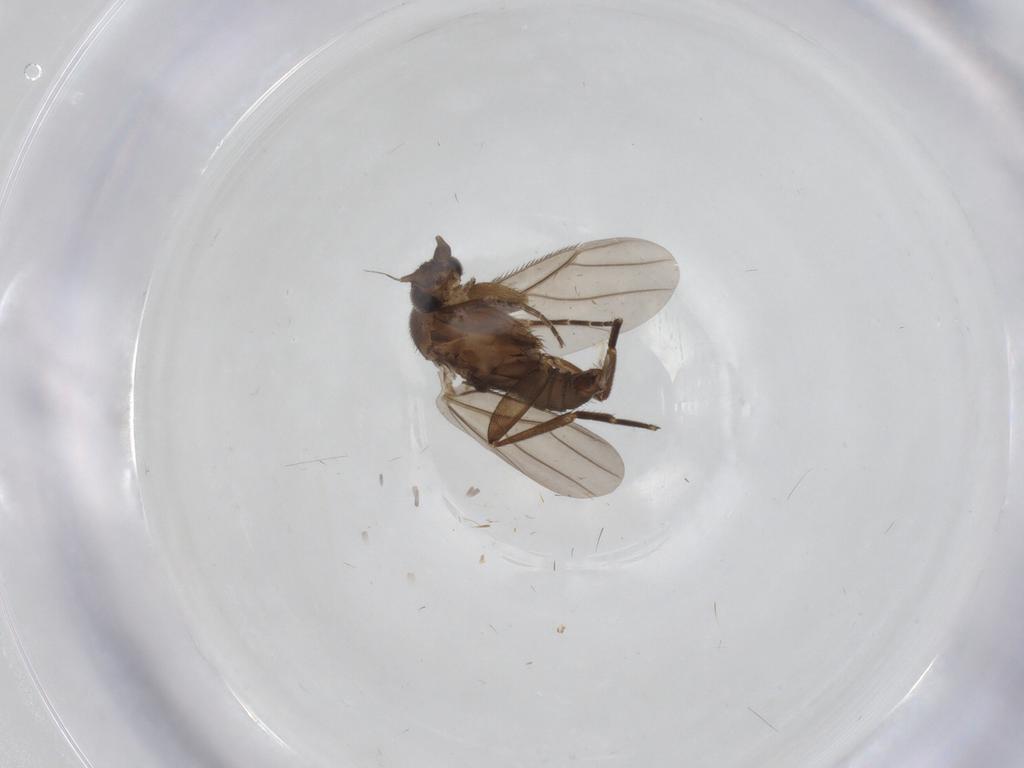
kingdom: Animalia
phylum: Arthropoda
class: Insecta
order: Diptera
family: Phoridae
